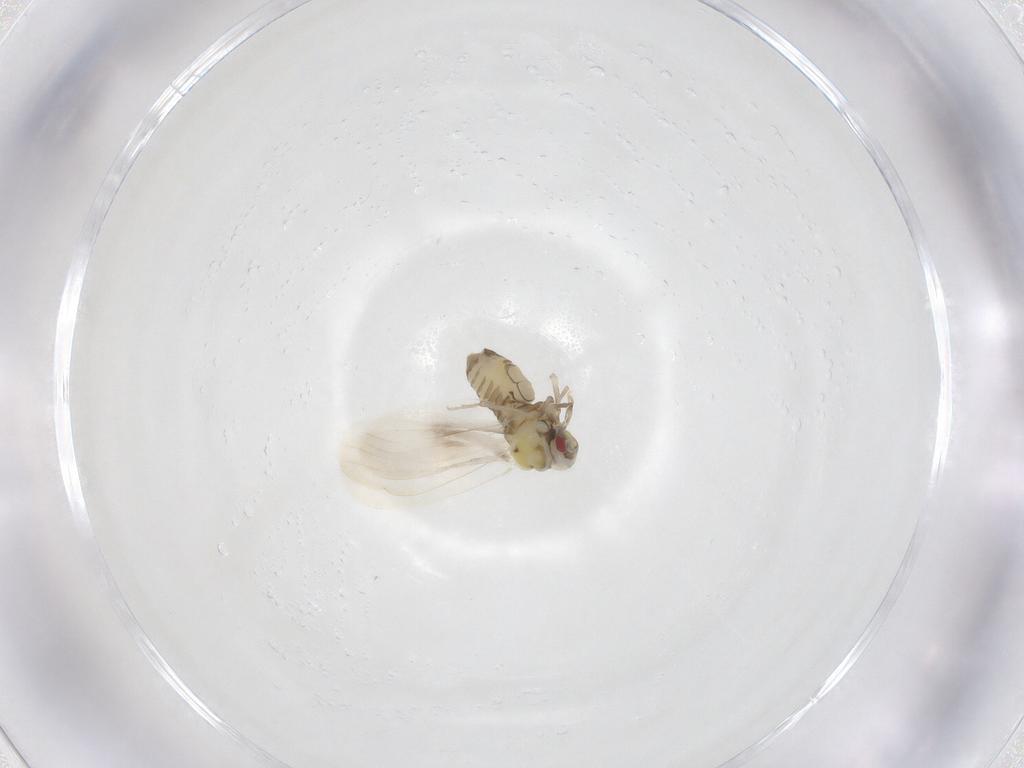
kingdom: Animalia
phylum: Arthropoda
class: Insecta
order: Hemiptera
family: Aleyrodidae
